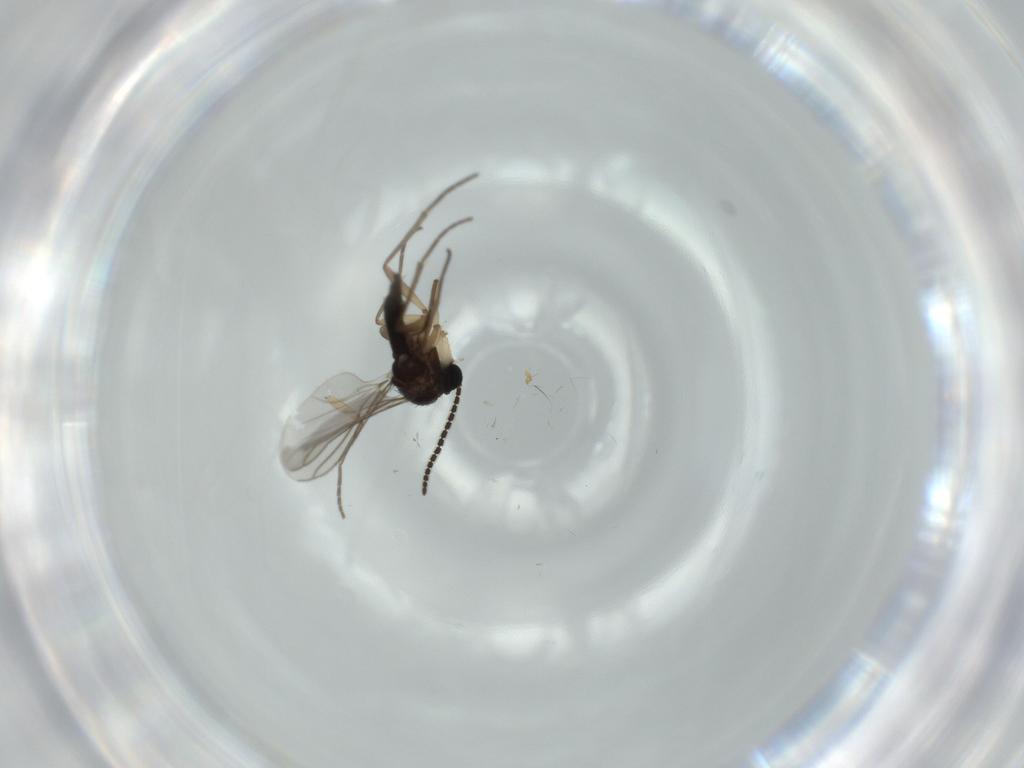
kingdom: Animalia
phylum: Arthropoda
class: Insecta
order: Diptera
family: Sciaridae
